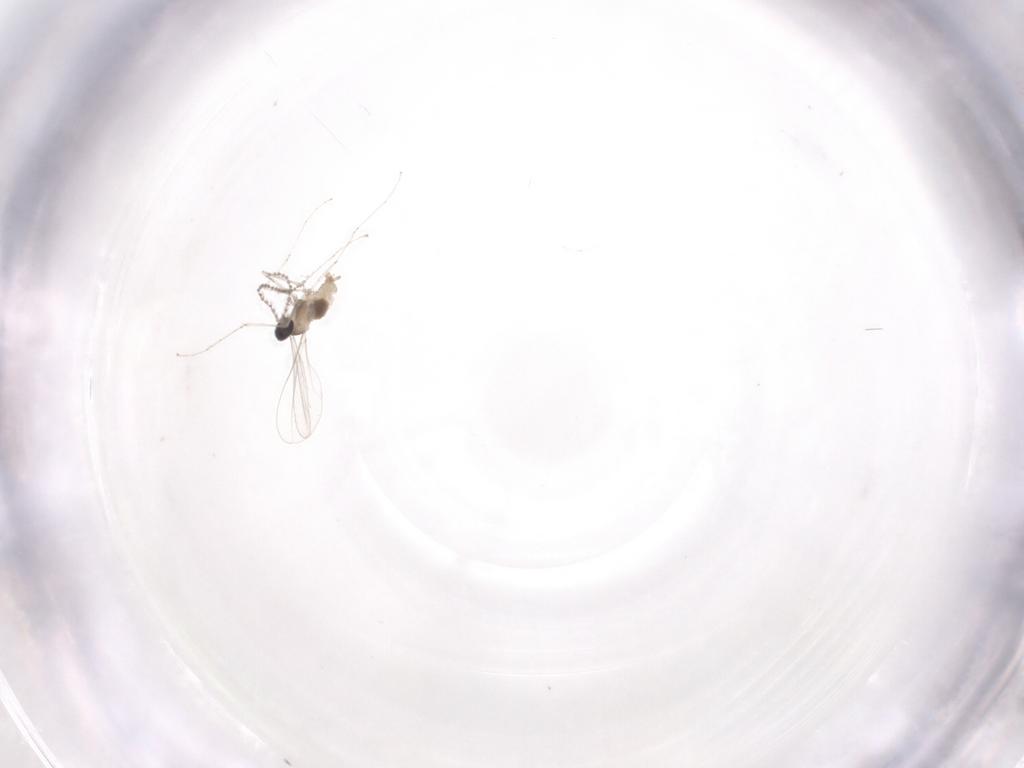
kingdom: Animalia
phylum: Arthropoda
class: Insecta
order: Diptera
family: Cecidomyiidae
